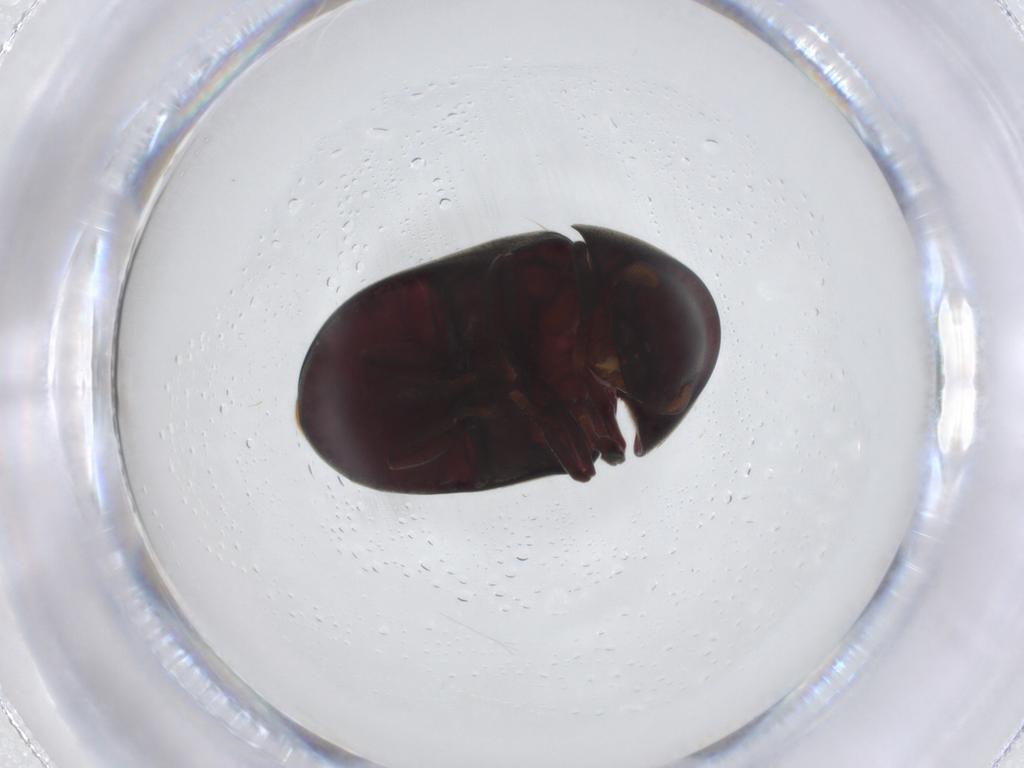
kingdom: Animalia
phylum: Arthropoda
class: Insecta
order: Coleoptera
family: Ptinidae
